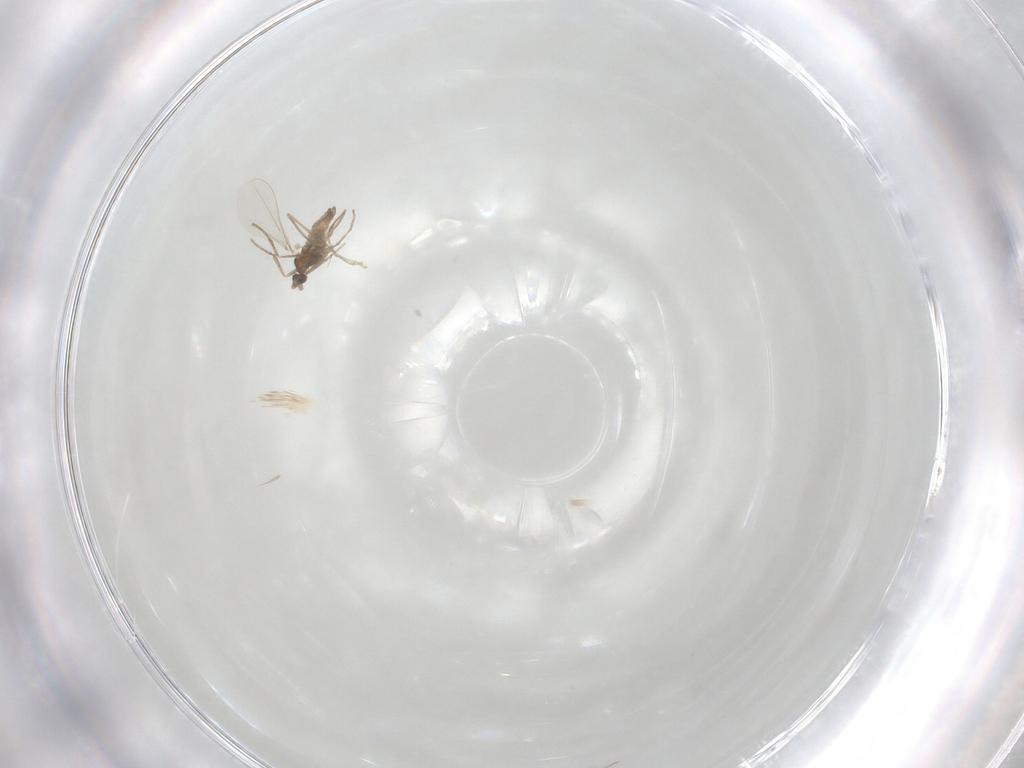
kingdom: Animalia
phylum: Arthropoda
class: Insecta
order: Diptera
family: Cecidomyiidae
